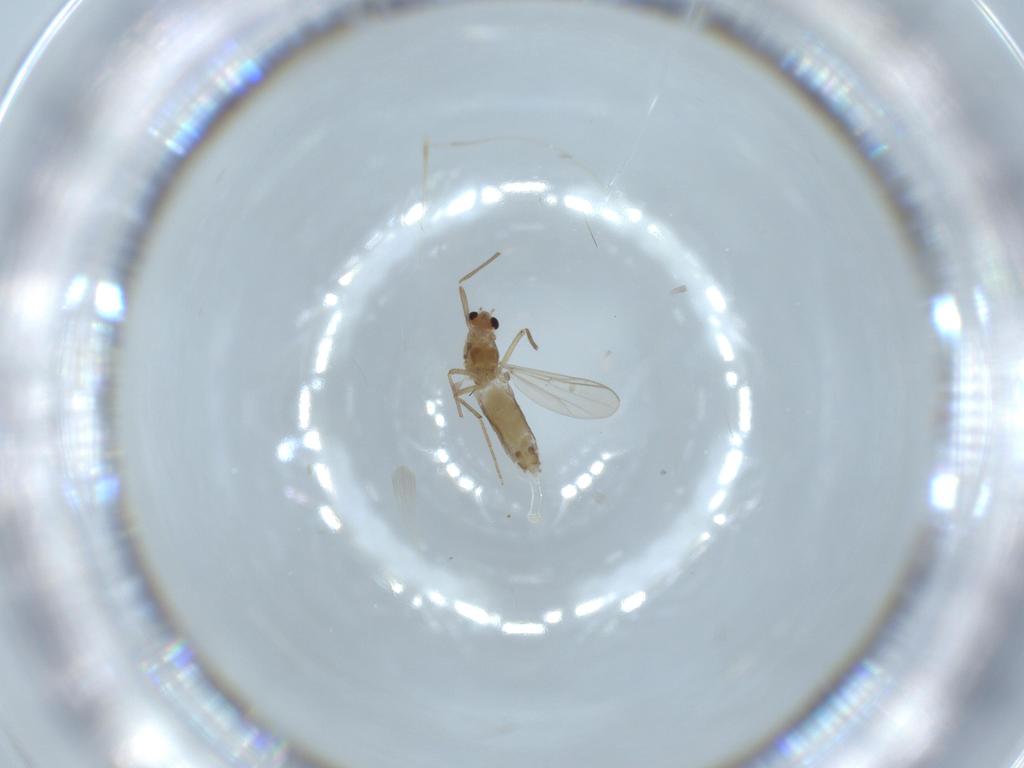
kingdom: Animalia
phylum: Arthropoda
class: Insecta
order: Diptera
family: Chironomidae
